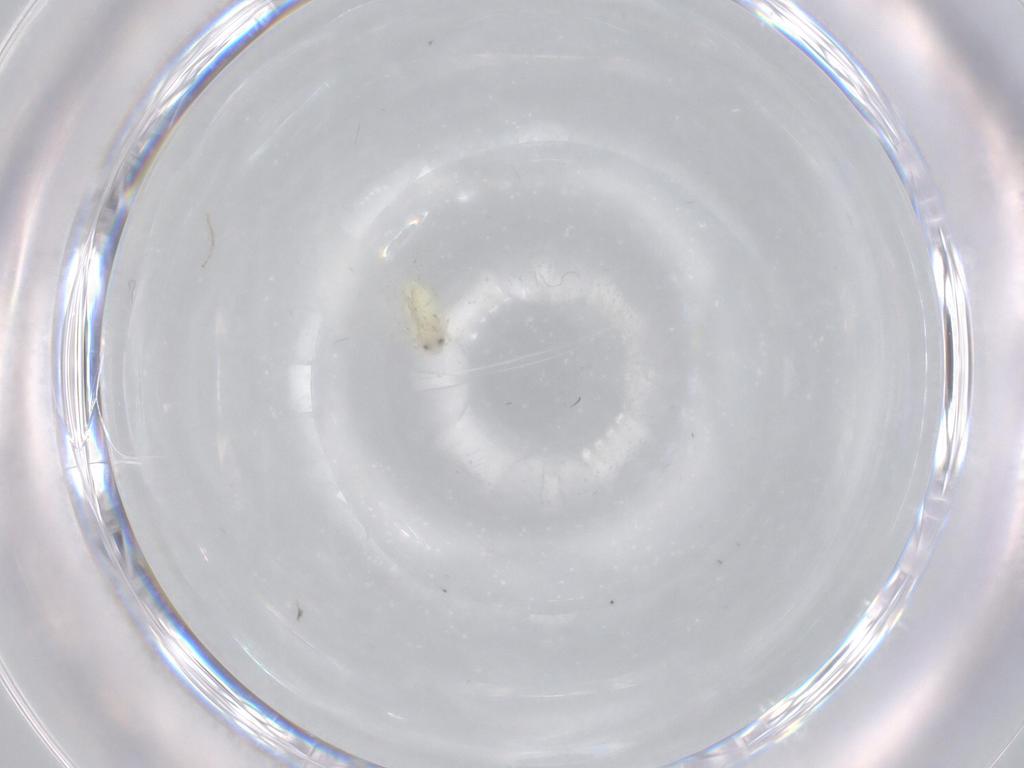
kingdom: Animalia
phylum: Arthropoda
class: Insecta
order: Hemiptera
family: Aleyrodidae
